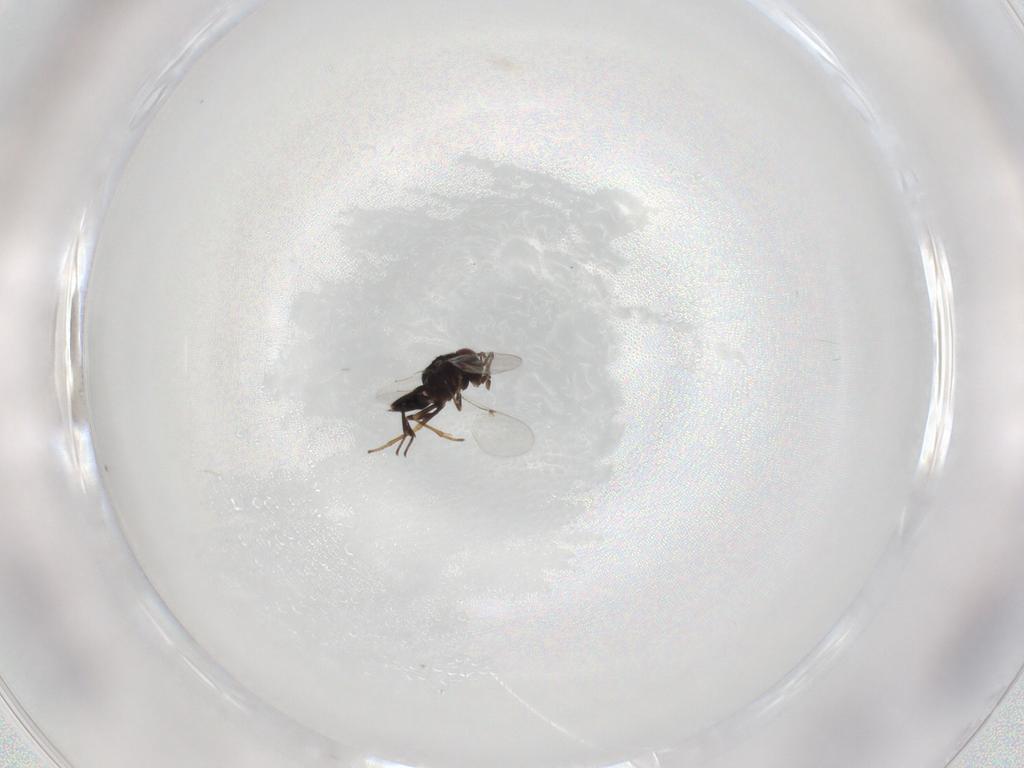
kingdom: Animalia
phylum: Arthropoda
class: Insecta
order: Hymenoptera
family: Encyrtidae
